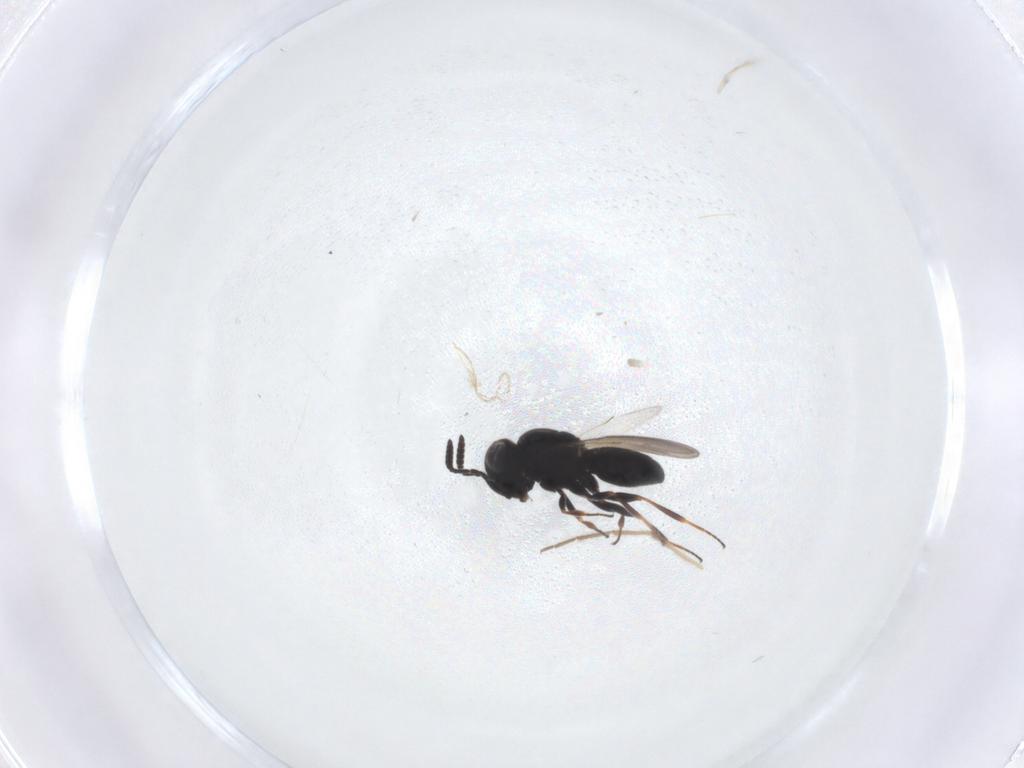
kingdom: Animalia
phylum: Arthropoda
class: Insecta
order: Hymenoptera
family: Scelionidae
